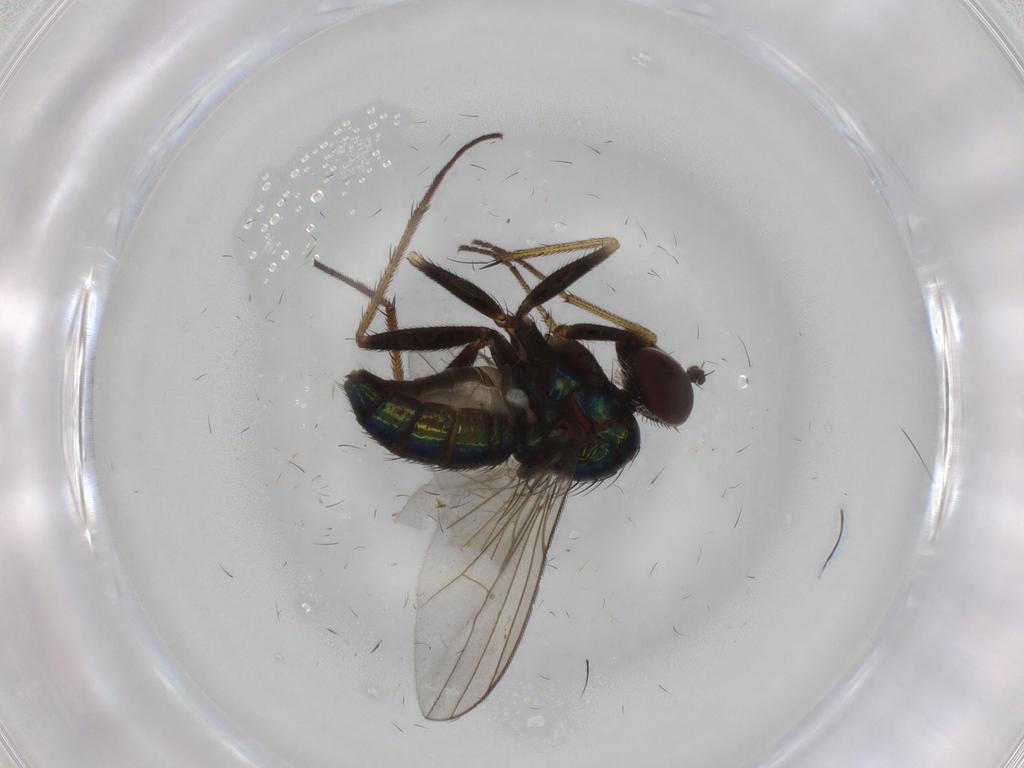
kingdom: Animalia
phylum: Arthropoda
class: Insecta
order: Diptera
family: Dolichopodidae
